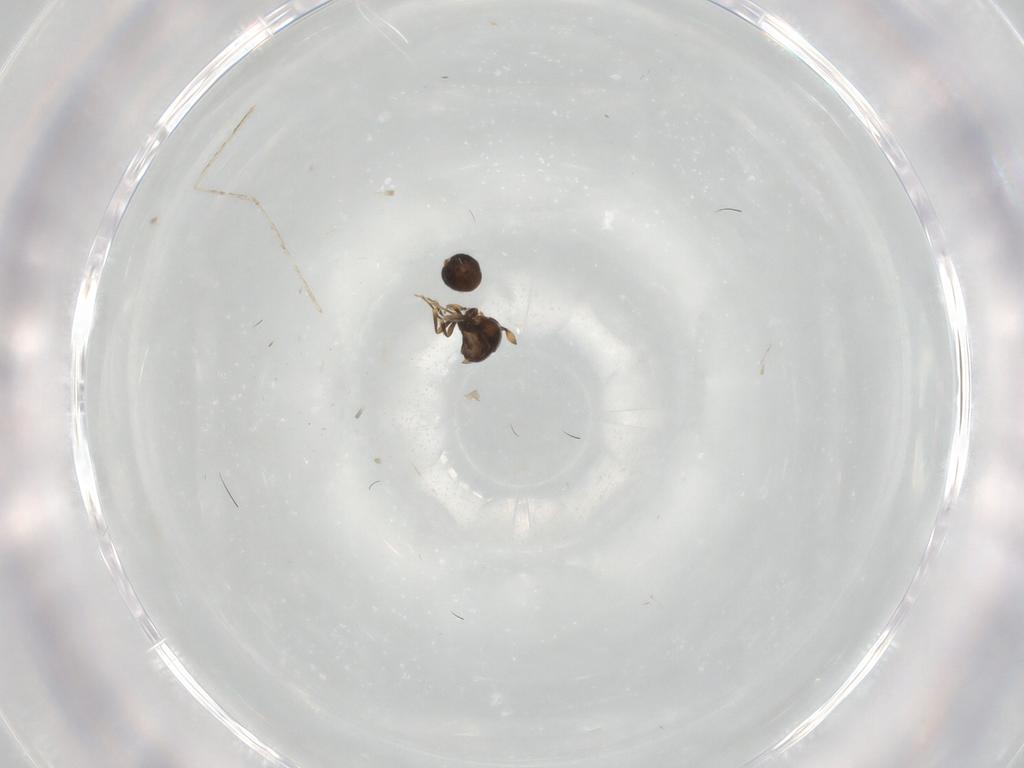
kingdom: Animalia
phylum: Arthropoda
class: Insecta
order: Hymenoptera
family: Scelionidae
